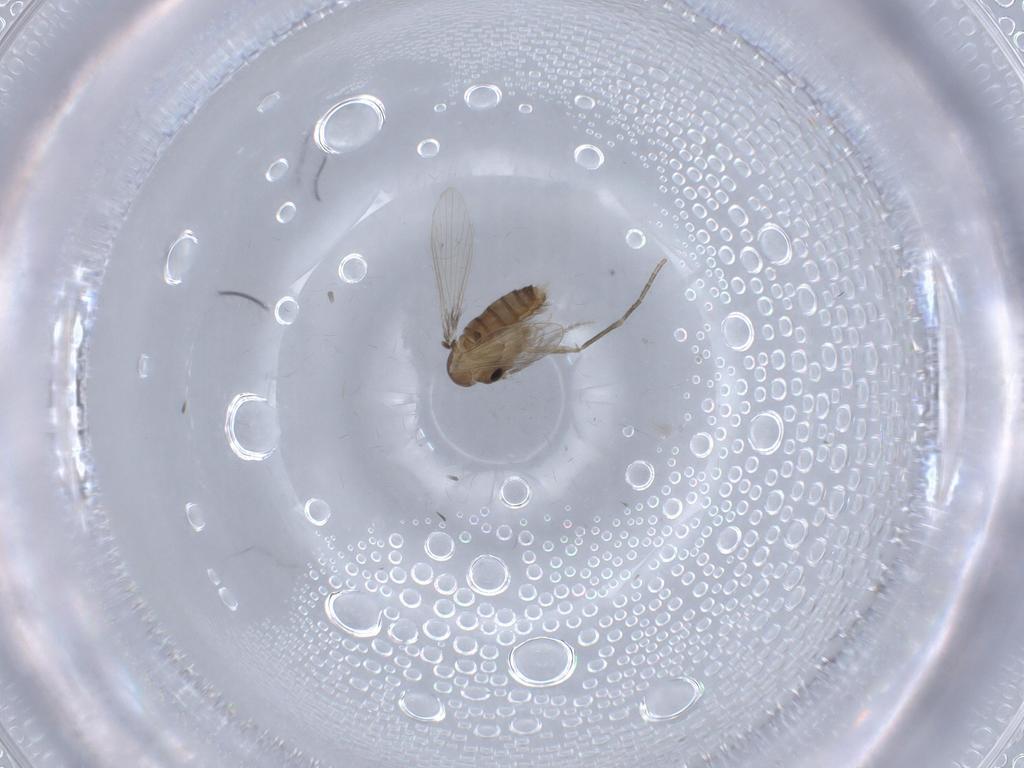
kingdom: Animalia
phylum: Arthropoda
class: Insecta
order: Diptera
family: Psychodidae
